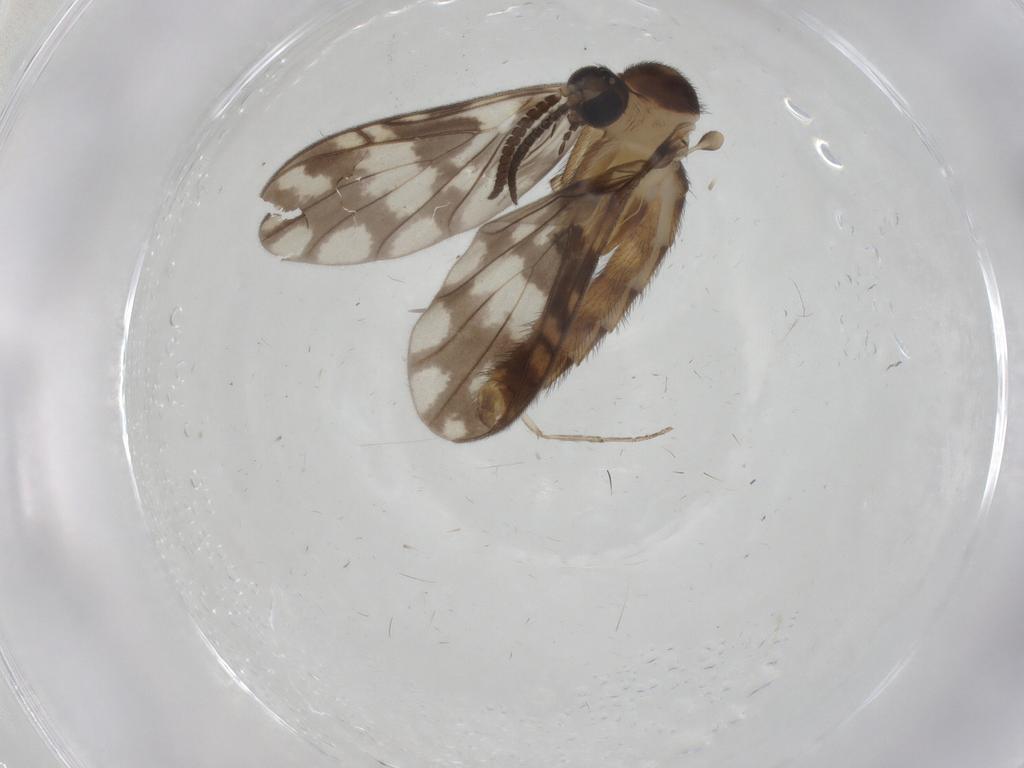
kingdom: Animalia
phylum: Arthropoda
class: Insecta
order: Diptera
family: Keroplatidae
